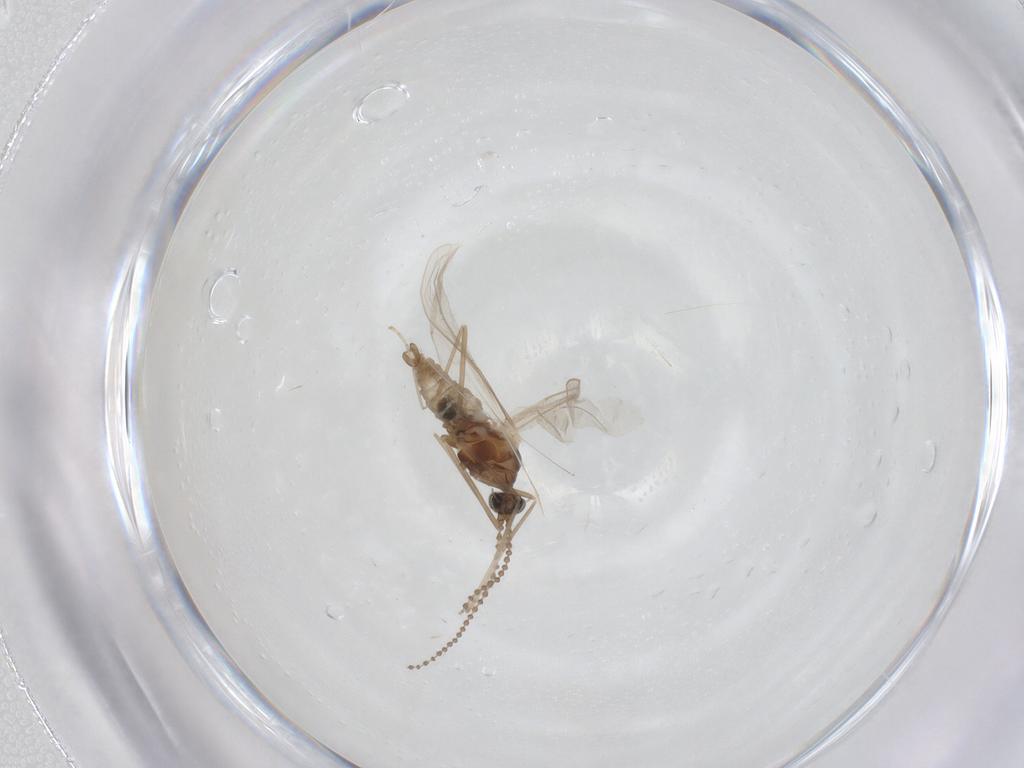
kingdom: Animalia
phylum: Arthropoda
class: Insecta
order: Diptera
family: Cecidomyiidae
